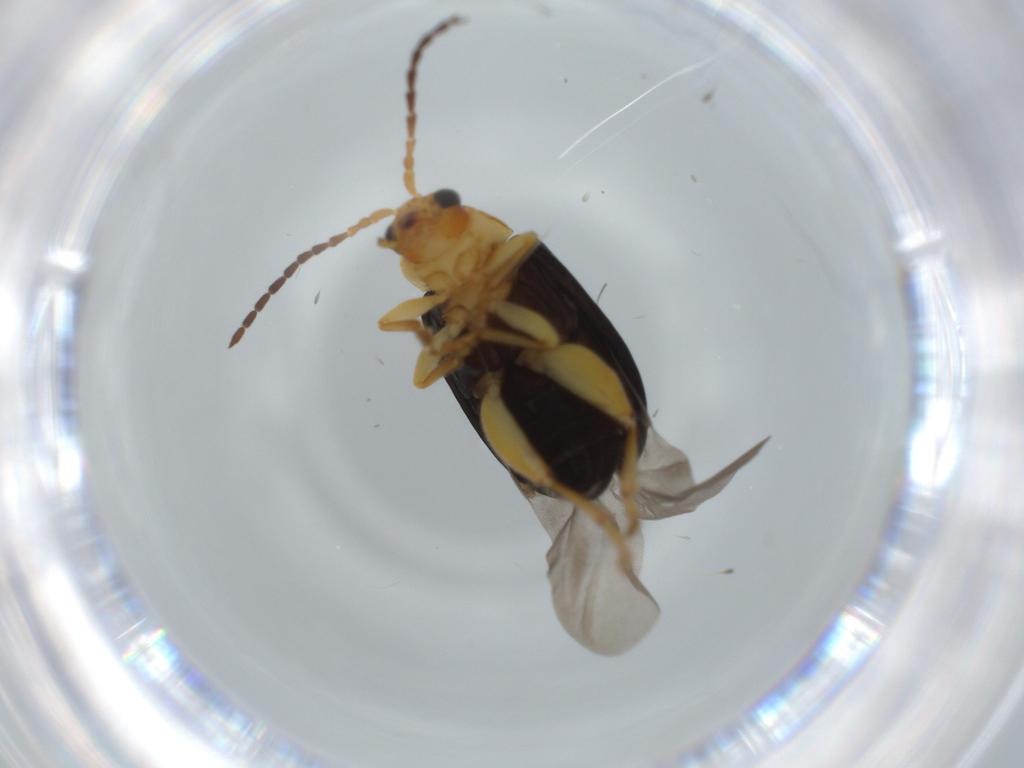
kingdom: Animalia
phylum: Arthropoda
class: Insecta
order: Coleoptera
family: Chrysomelidae
